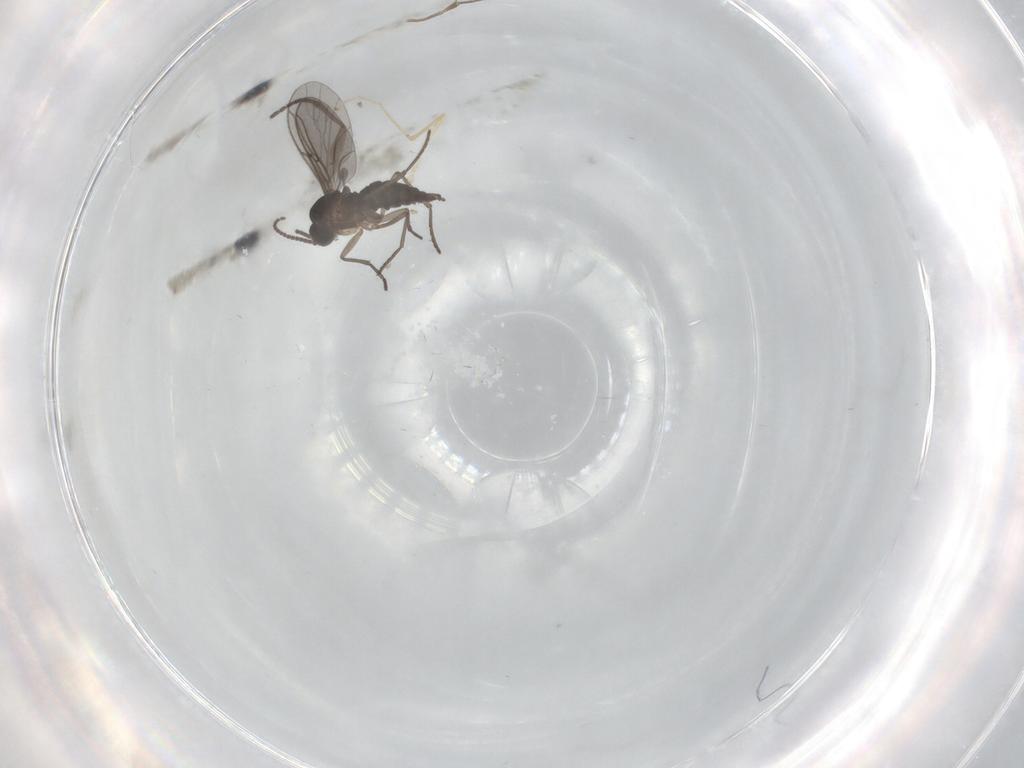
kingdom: Animalia
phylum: Arthropoda
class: Insecta
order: Diptera
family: Sciaridae
